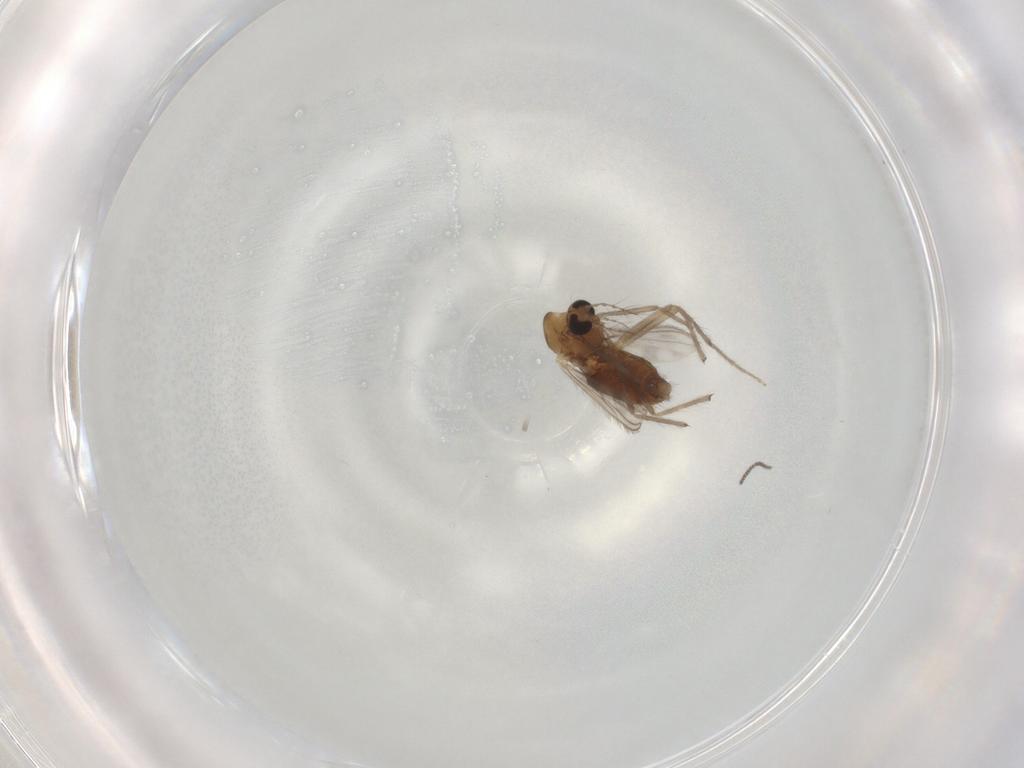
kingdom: Animalia
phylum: Arthropoda
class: Insecta
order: Diptera
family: Chironomidae
